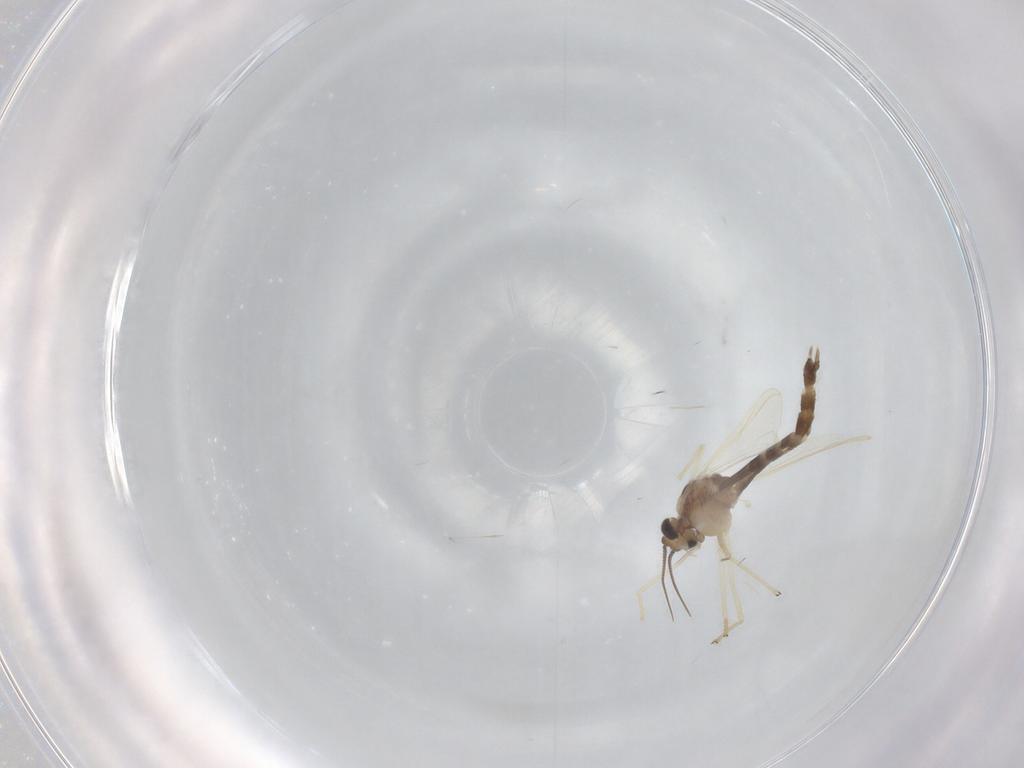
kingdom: Animalia
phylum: Arthropoda
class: Insecta
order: Diptera
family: Chironomidae
